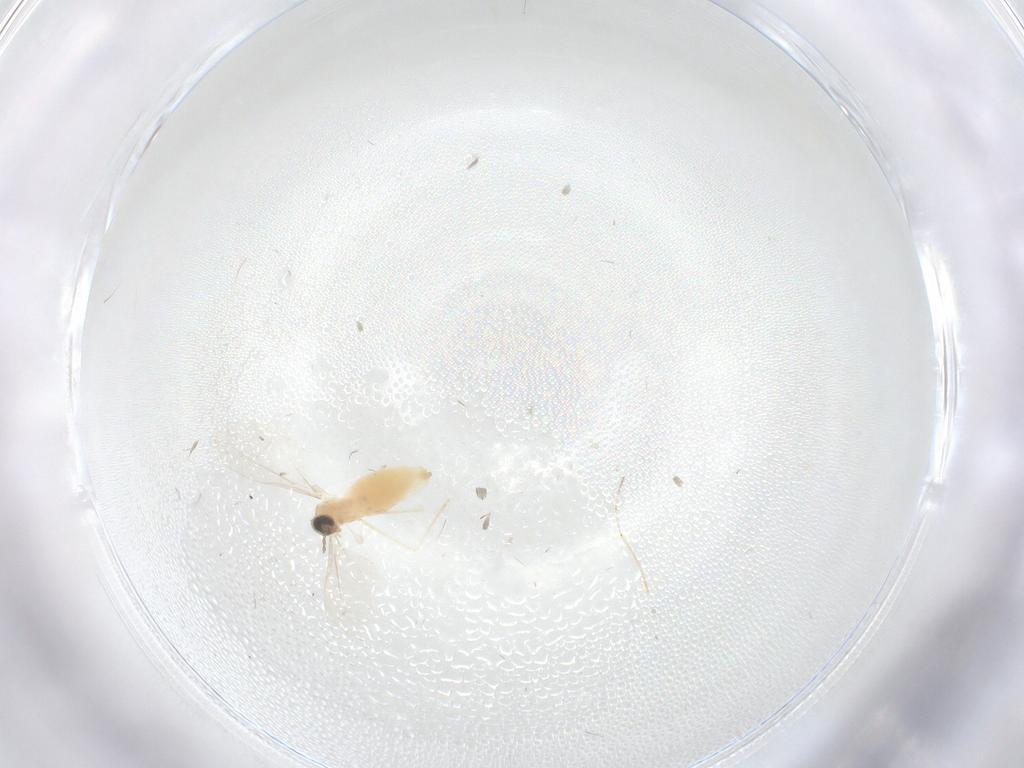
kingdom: Animalia
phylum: Arthropoda
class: Insecta
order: Diptera
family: Cecidomyiidae
